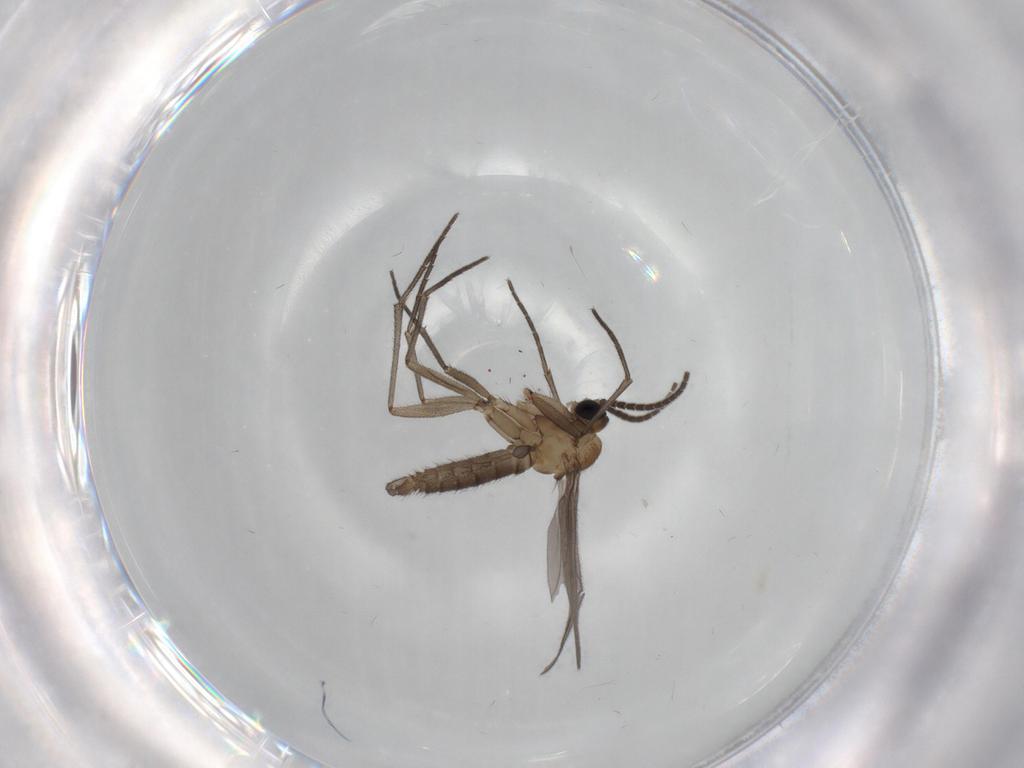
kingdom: Animalia
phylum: Arthropoda
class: Insecta
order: Diptera
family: Sciaridae
